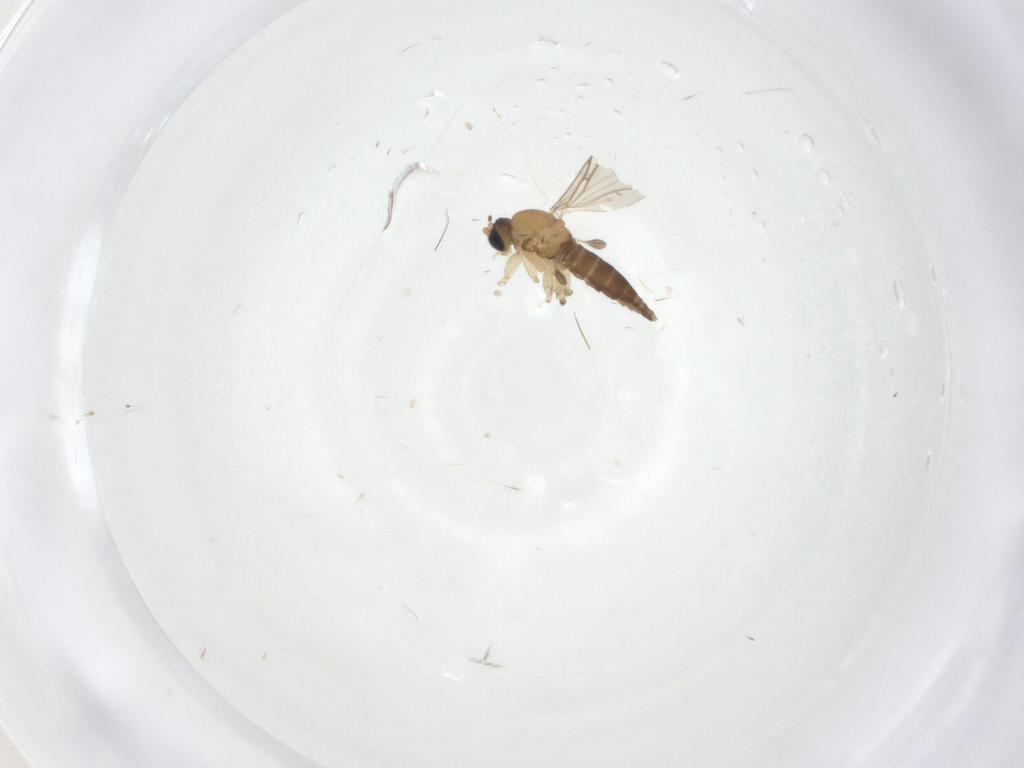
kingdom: Animalia
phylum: Arthropoda
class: Insecta
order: Diptera
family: Sciaridae
